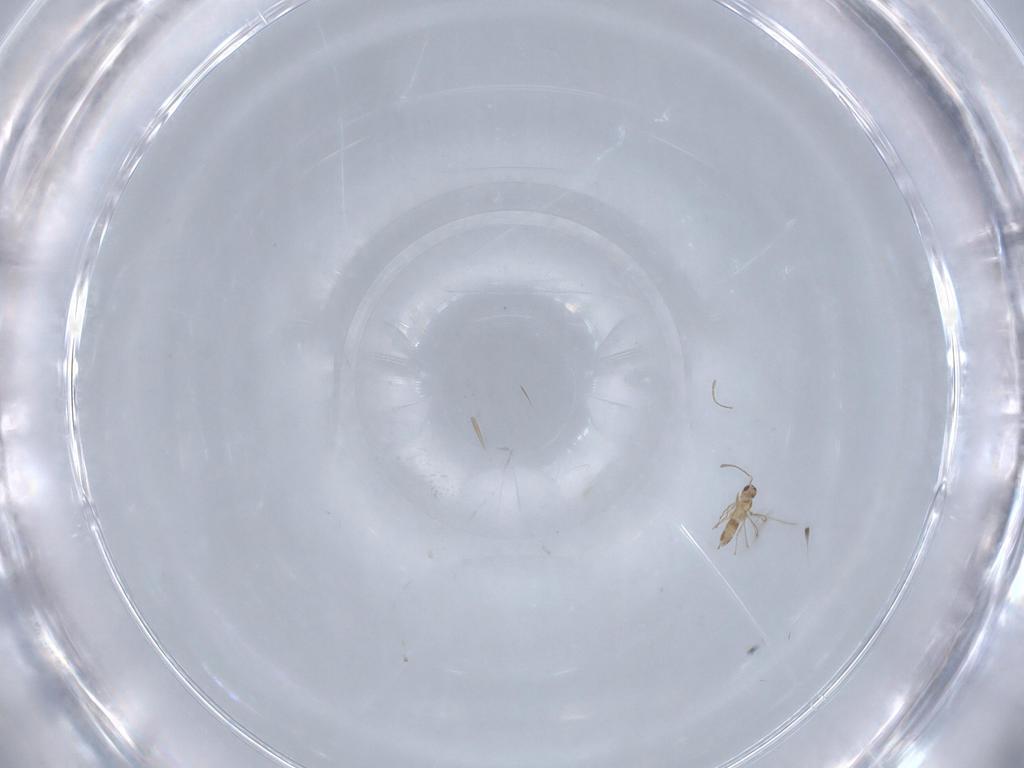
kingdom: Animalia
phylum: Arthropoda
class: Insecta
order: Hymenoptera
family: Mymaridae
